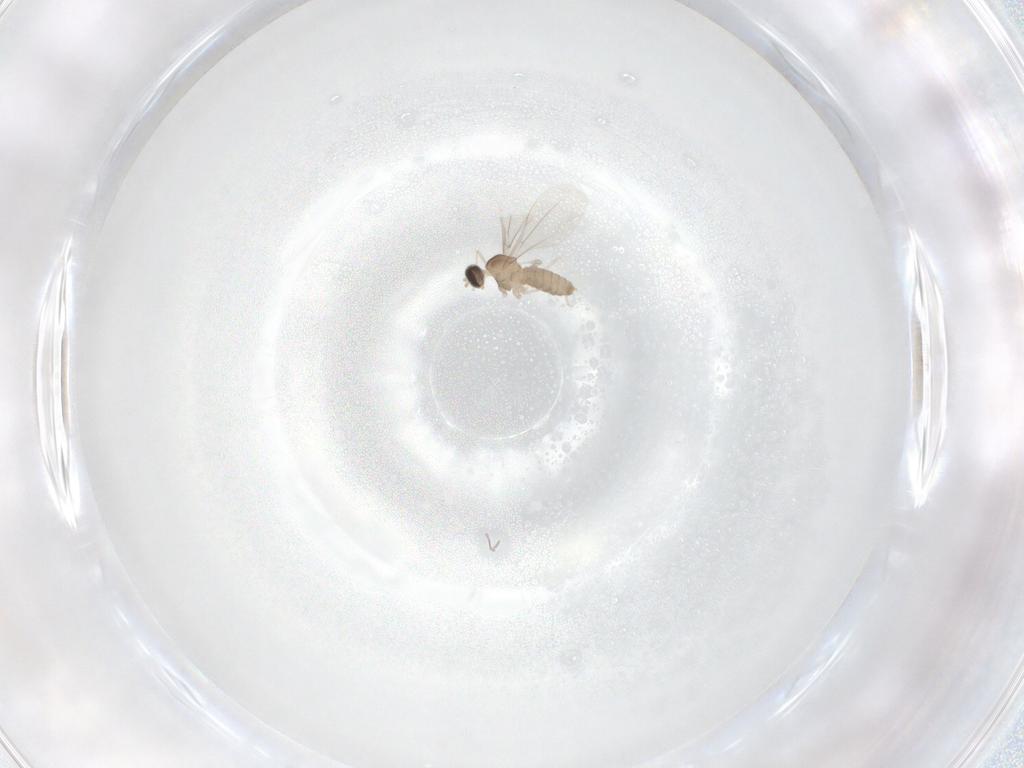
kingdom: Animalia
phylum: Arthropoda
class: Insecta
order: Diptera
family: Cecidomyiidae
